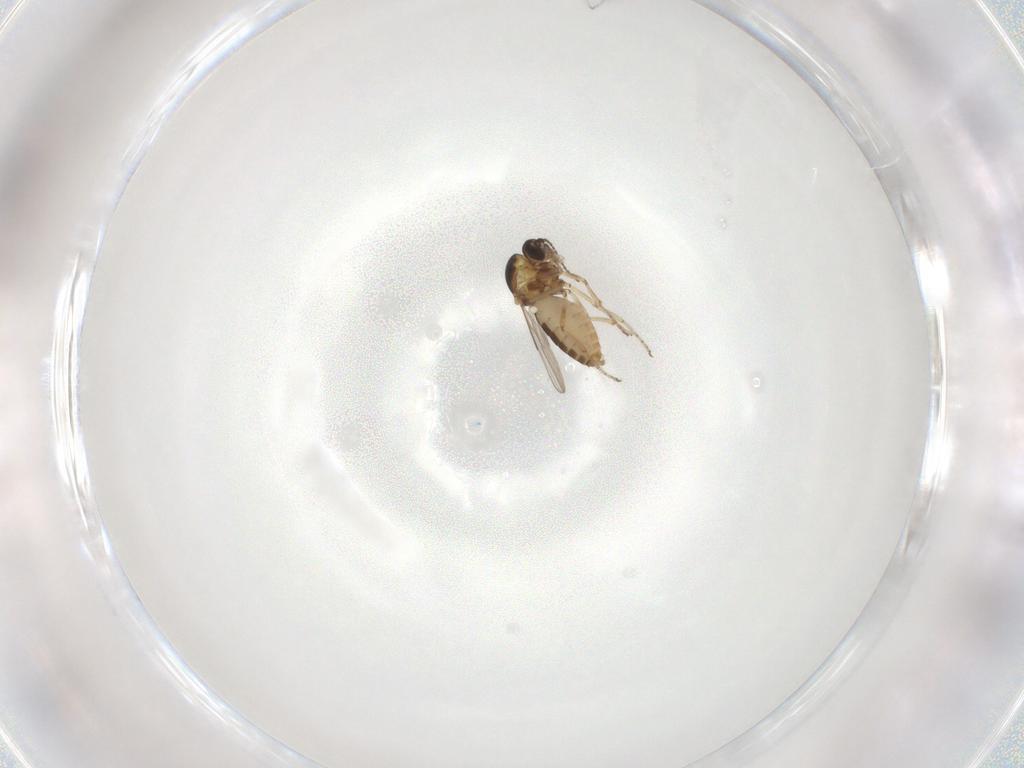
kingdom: Animalia
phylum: Arthropoda
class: Insecta
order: Diptera
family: Ceratopogonidae
